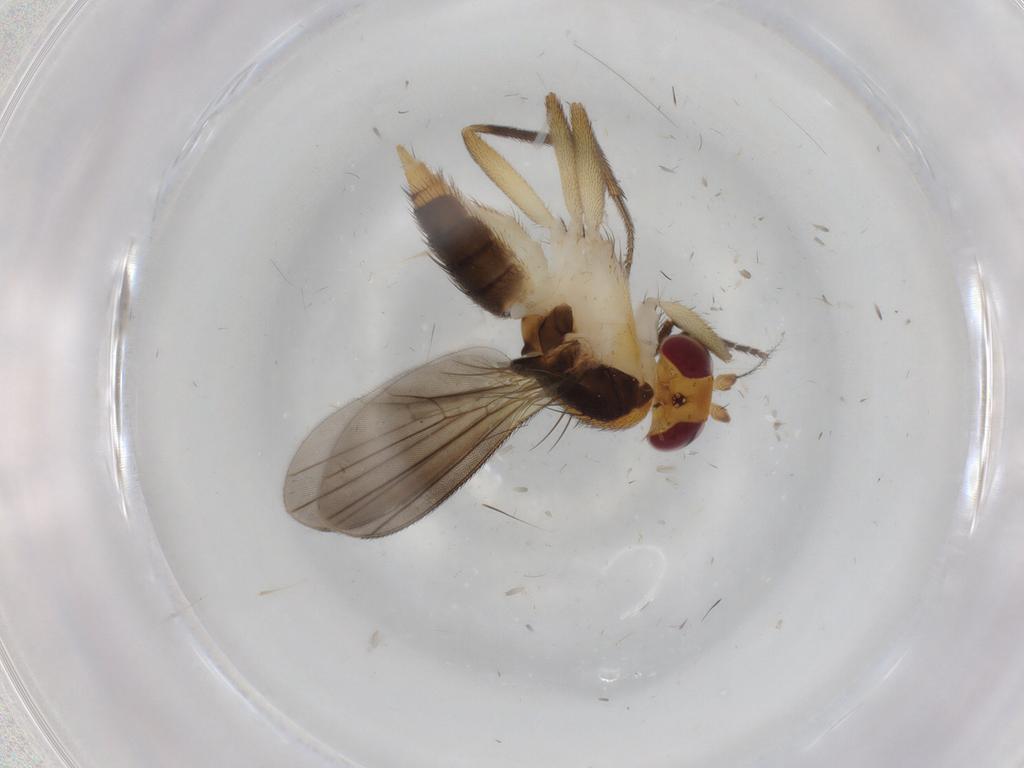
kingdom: Animalia
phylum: Arthropoda
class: Insecta
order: Diptera
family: Clusiidae
